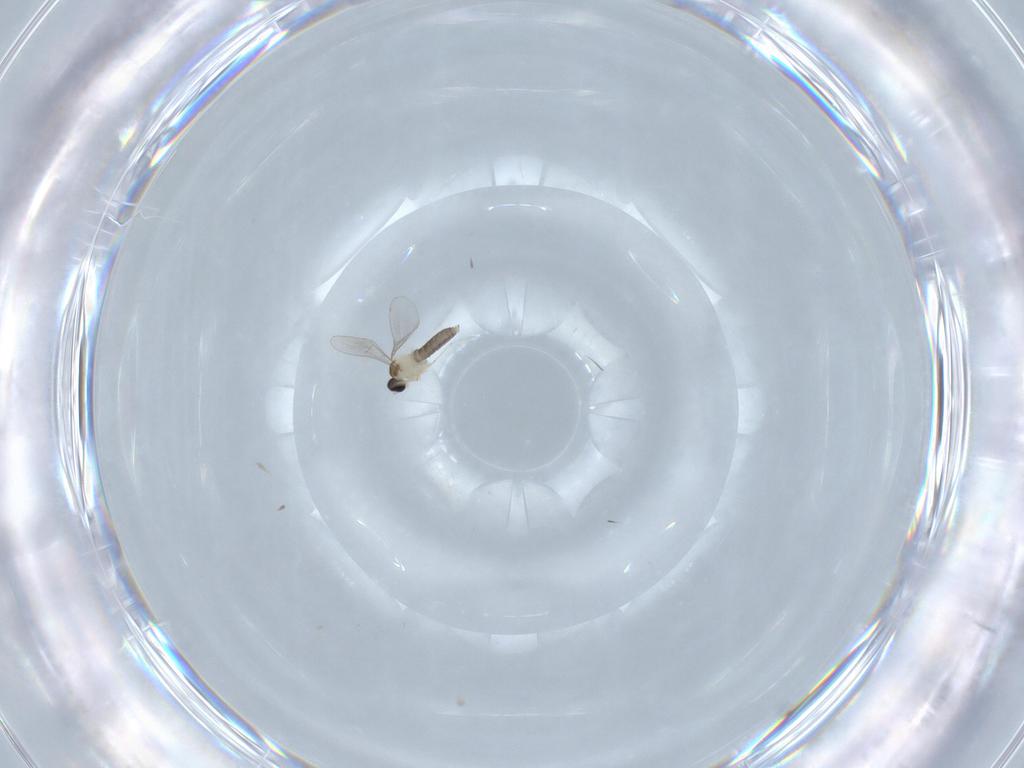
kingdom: Animalia
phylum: Arthropoda
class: Insecta
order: Diptera
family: Cecidomyiidae
